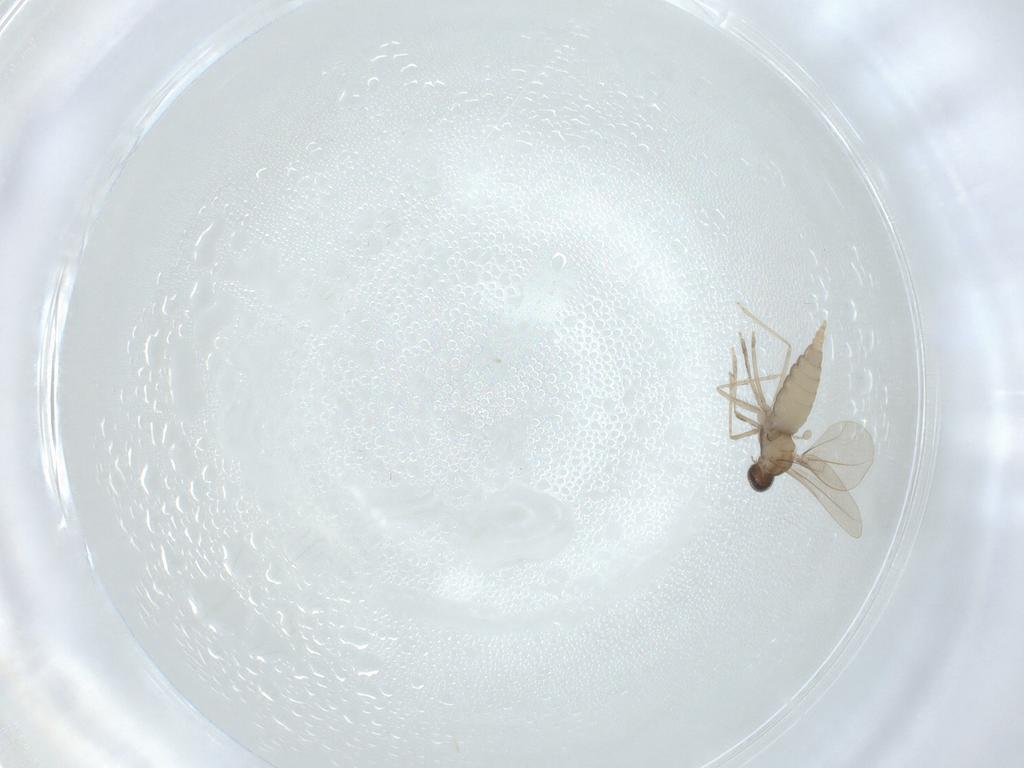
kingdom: Animalia
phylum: Arthropoda
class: Insecta
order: Diptera
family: Cecidomyiidae
